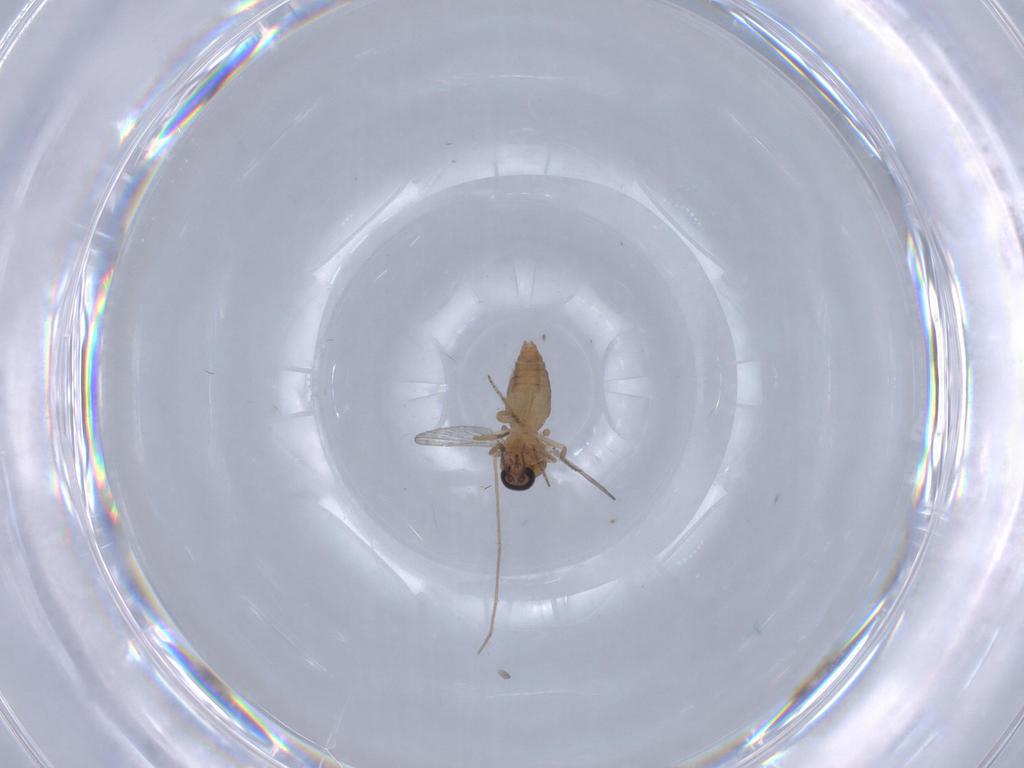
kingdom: Animalia
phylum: Arthropoda
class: Insecta
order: Diptera
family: Ceratopogonidae
